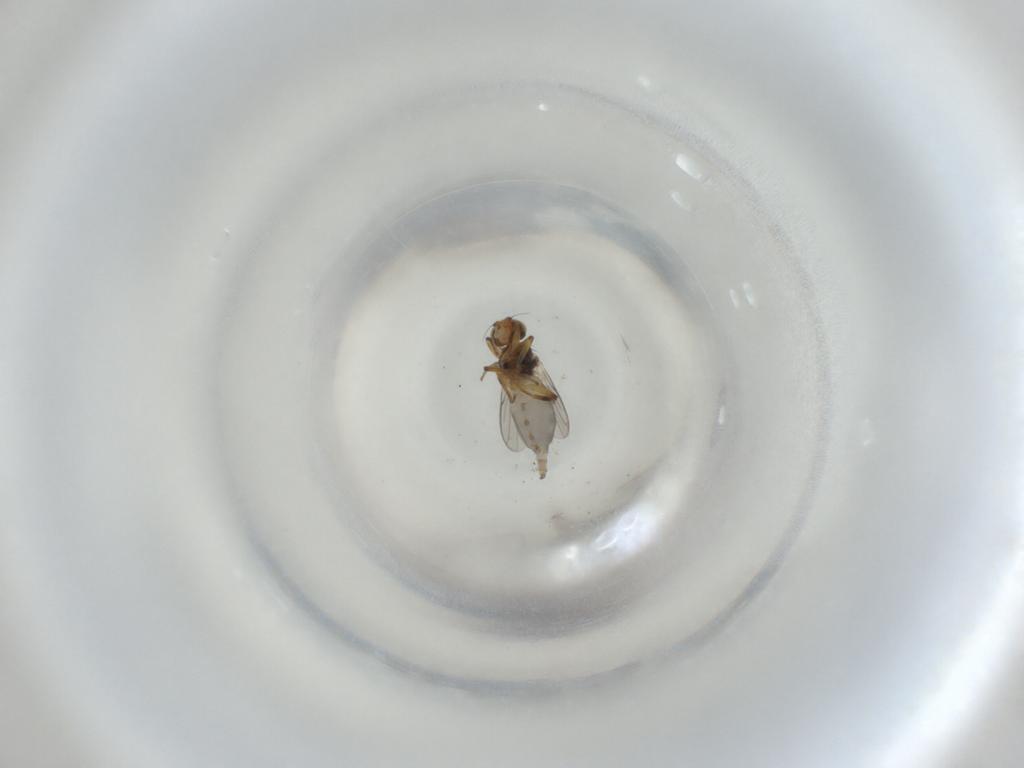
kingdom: Animalia
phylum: Arthropoda
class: Insecta
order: Diptera
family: Chloropidae
